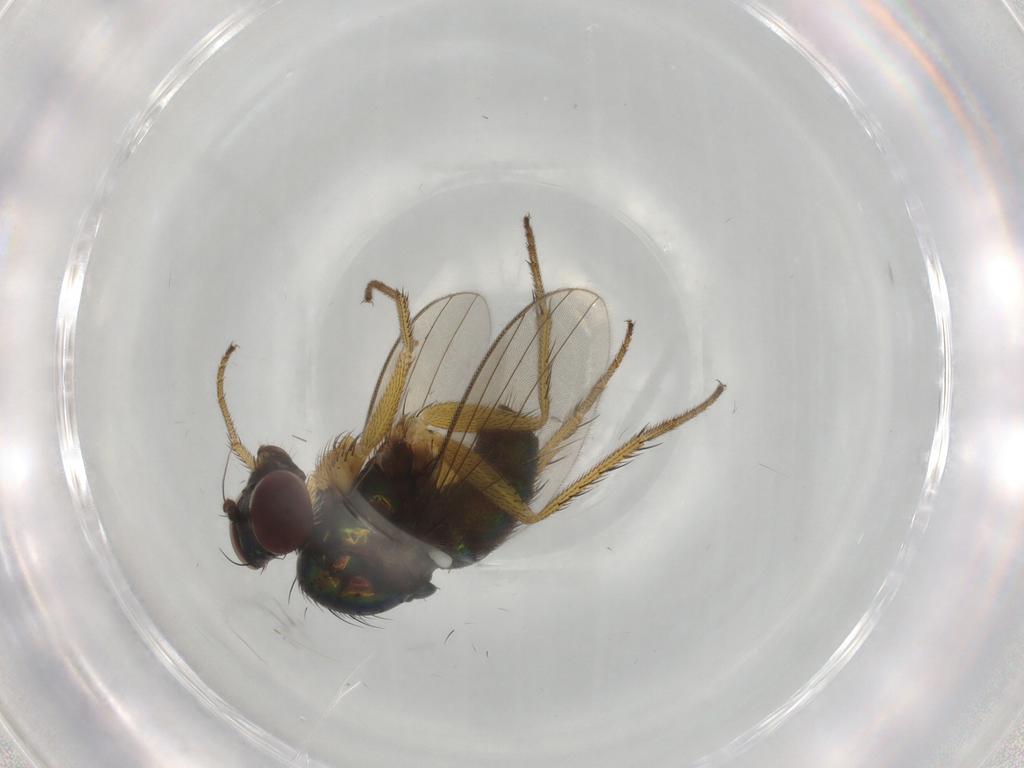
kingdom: Animalia
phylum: Arthropoda
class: Insecta
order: Diptera
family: Dolichopodidae
